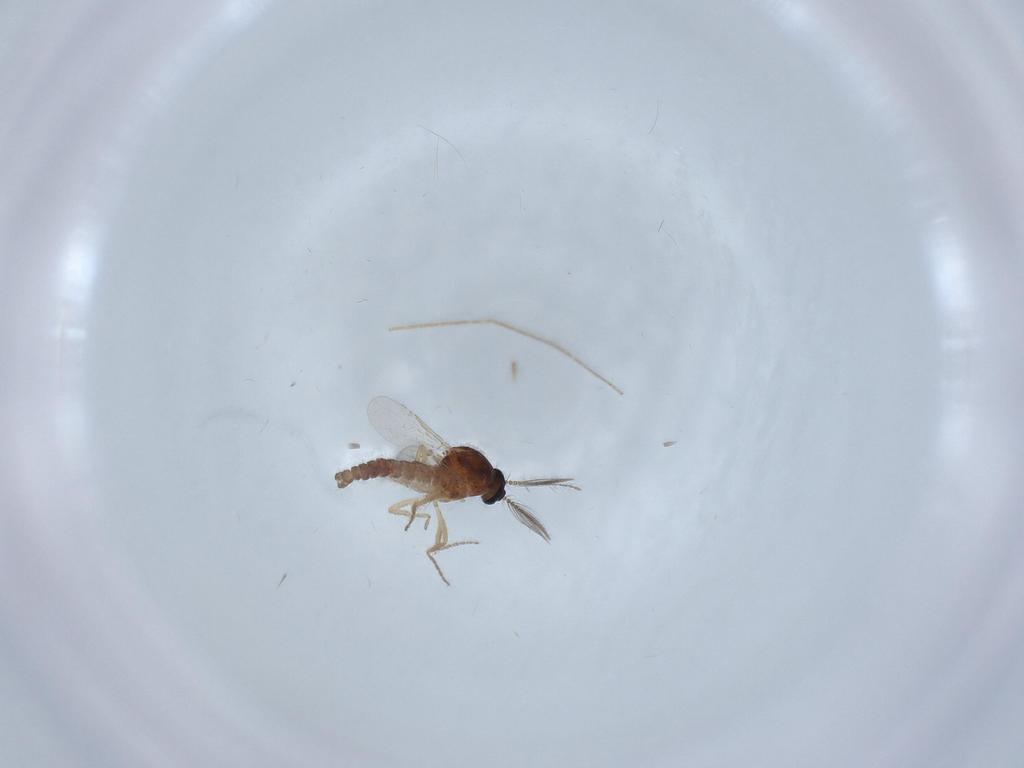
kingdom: Animalia
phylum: Arthropoda
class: Insecta
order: Diptera
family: Ceratopogonidae
